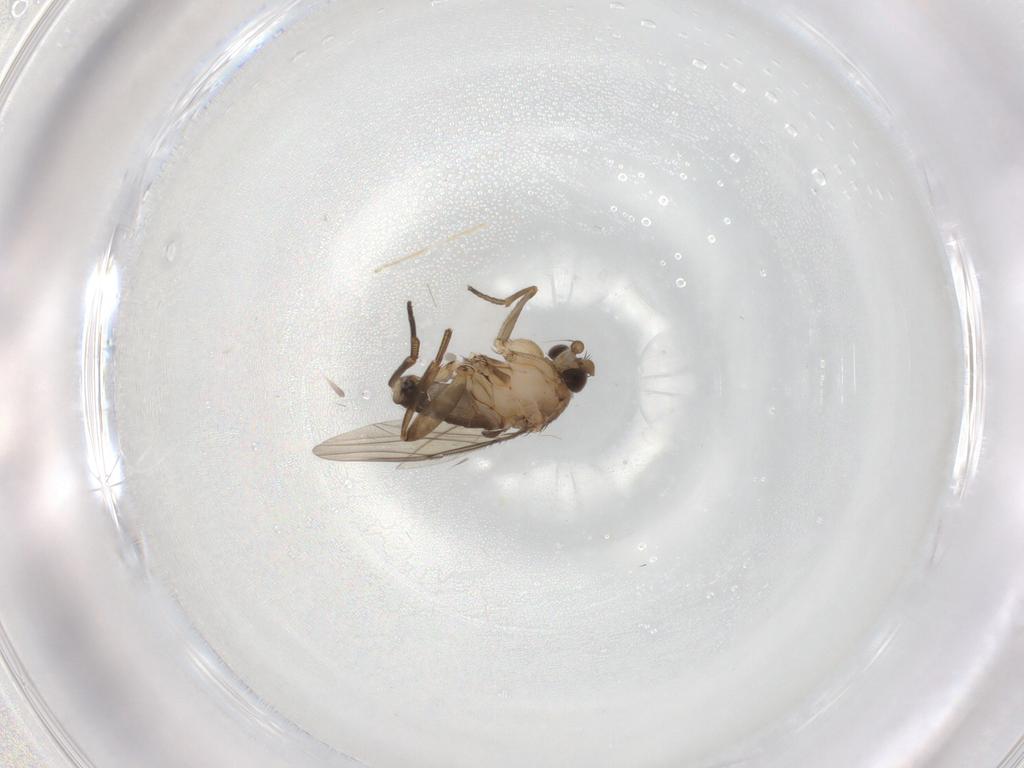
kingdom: Animalia
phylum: Arthropoda
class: Insecta
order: Diptera
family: Phoridae
